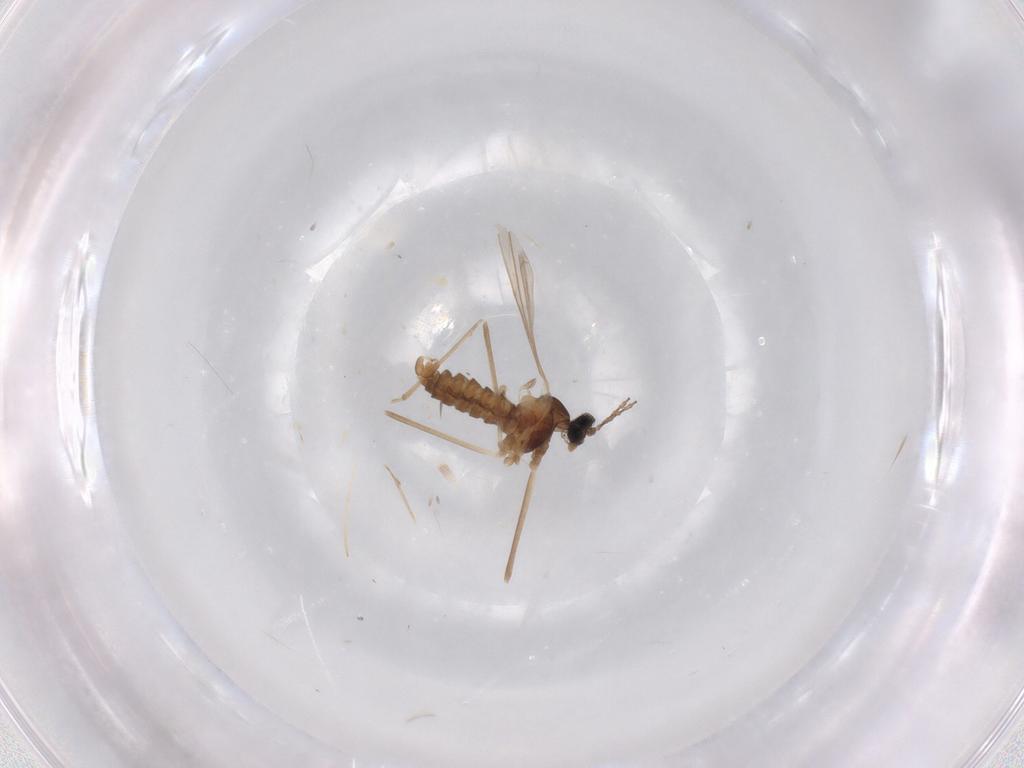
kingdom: Animalia
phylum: Arthropoda
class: Insecta
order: Diptera
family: Cecidomyiidae
